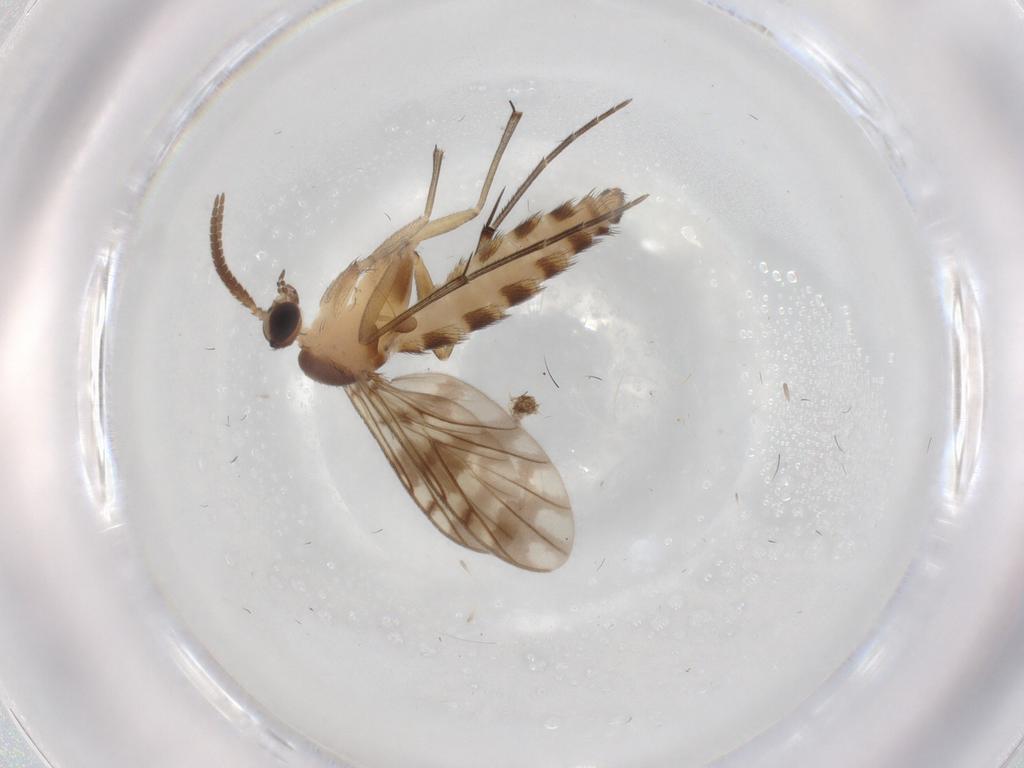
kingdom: Animalia
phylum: Arthropoda
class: Insecta
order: Diptera
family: Keroplatidae
